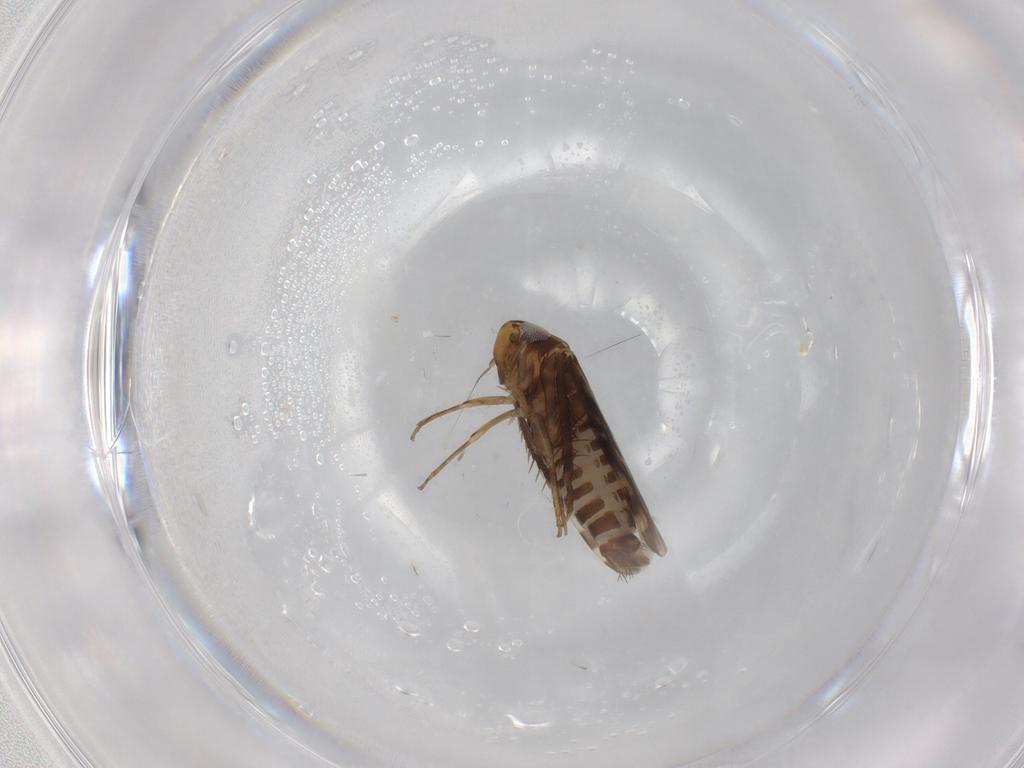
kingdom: Animalia
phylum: Arthropoda
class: Insecta
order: Hemiptera
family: Cicadellidae
